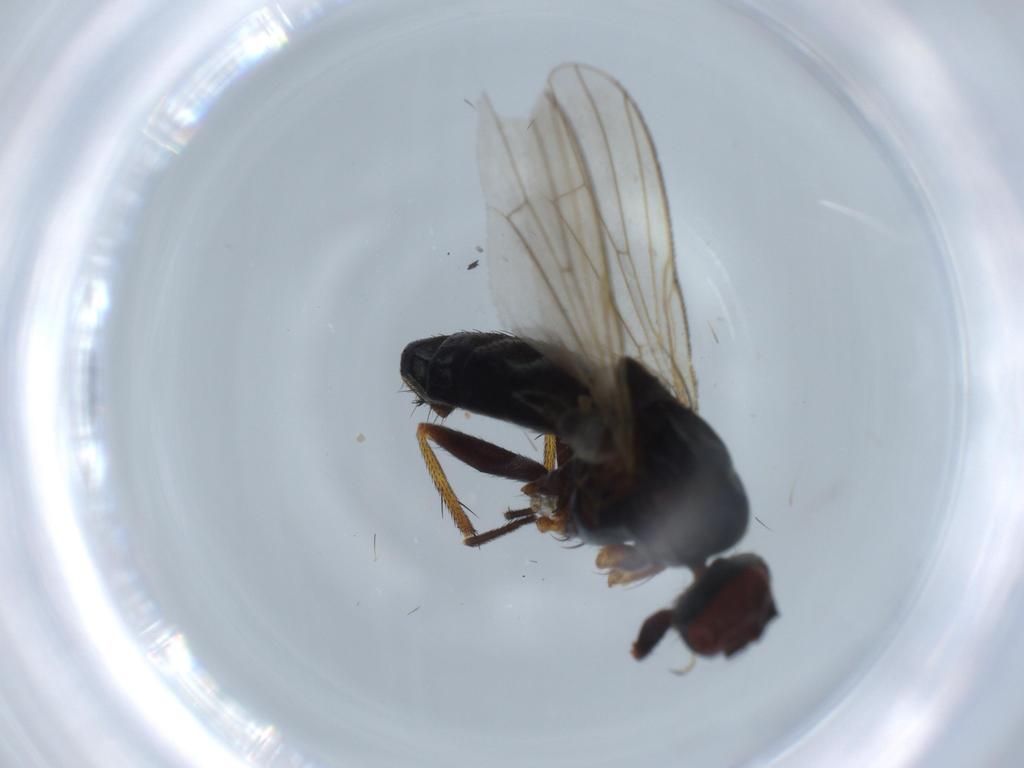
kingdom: Animalia
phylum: Arthropoda
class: Insecta
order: Diptera
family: Muscidae
